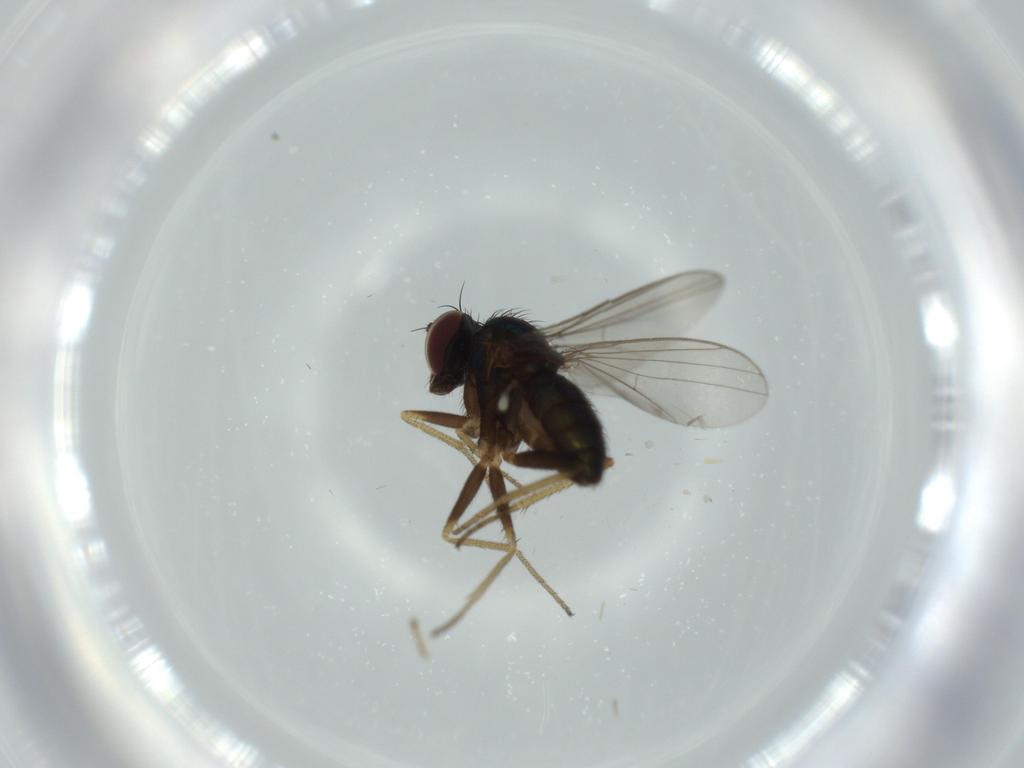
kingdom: Animalia
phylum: Arthropoda
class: Insecta
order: Diptera
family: Dolichopodidae
